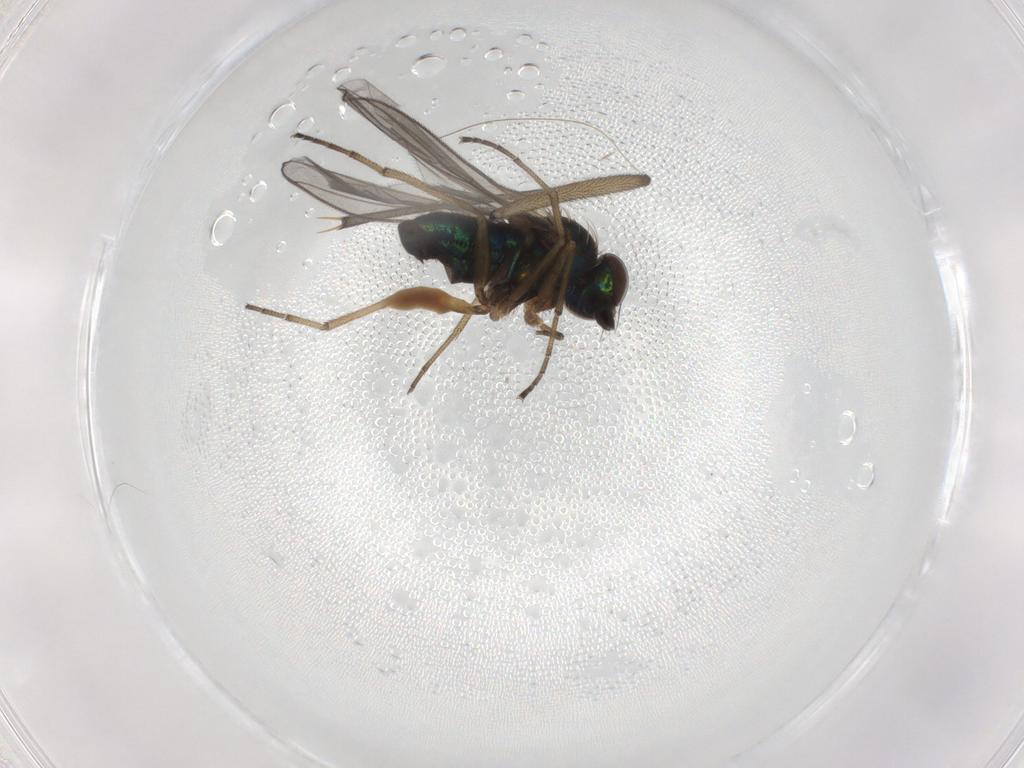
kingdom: Animalia
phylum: Arthropoda
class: Insecta
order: Diptera
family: Dolichopodidae
